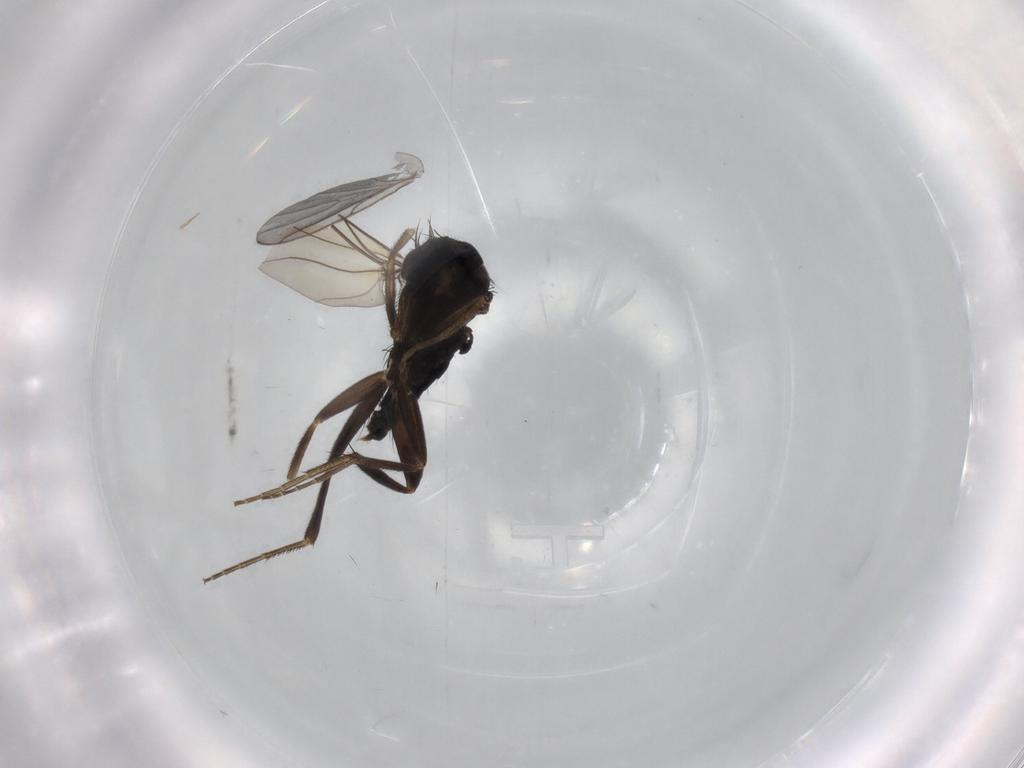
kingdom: Animalia
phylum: Arthropoda
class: Insecta
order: Diptera
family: Phoridae
